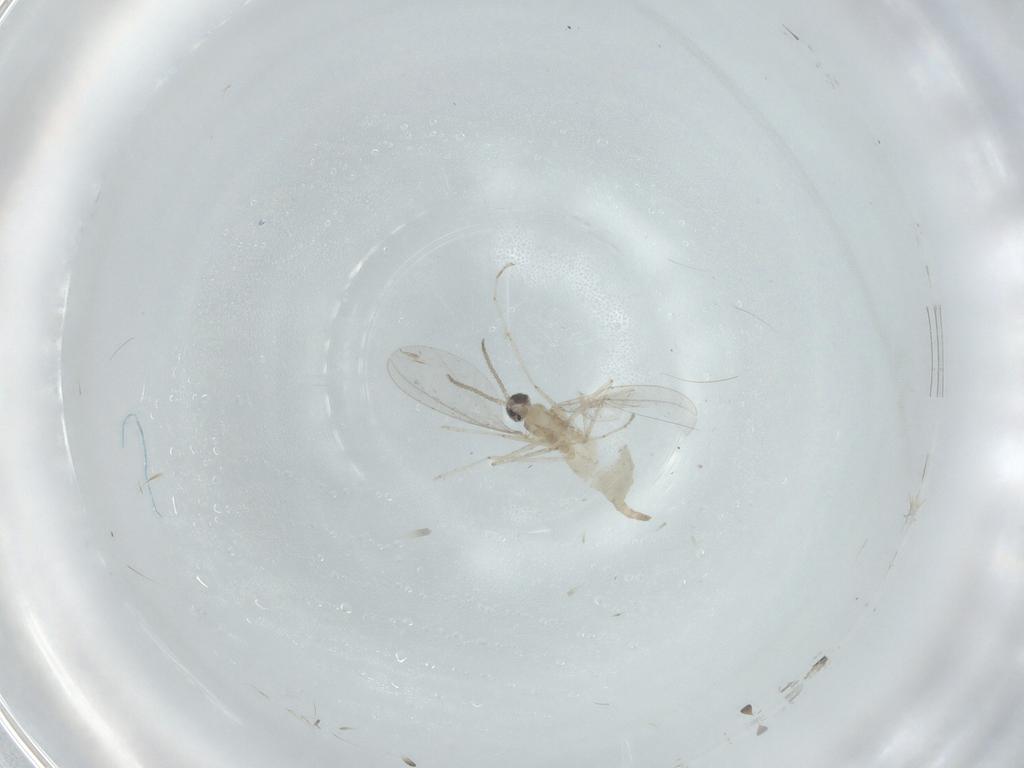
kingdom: Animalia
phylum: Arthropoda
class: Insecta
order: Diptera
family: Cecidomyiidae
